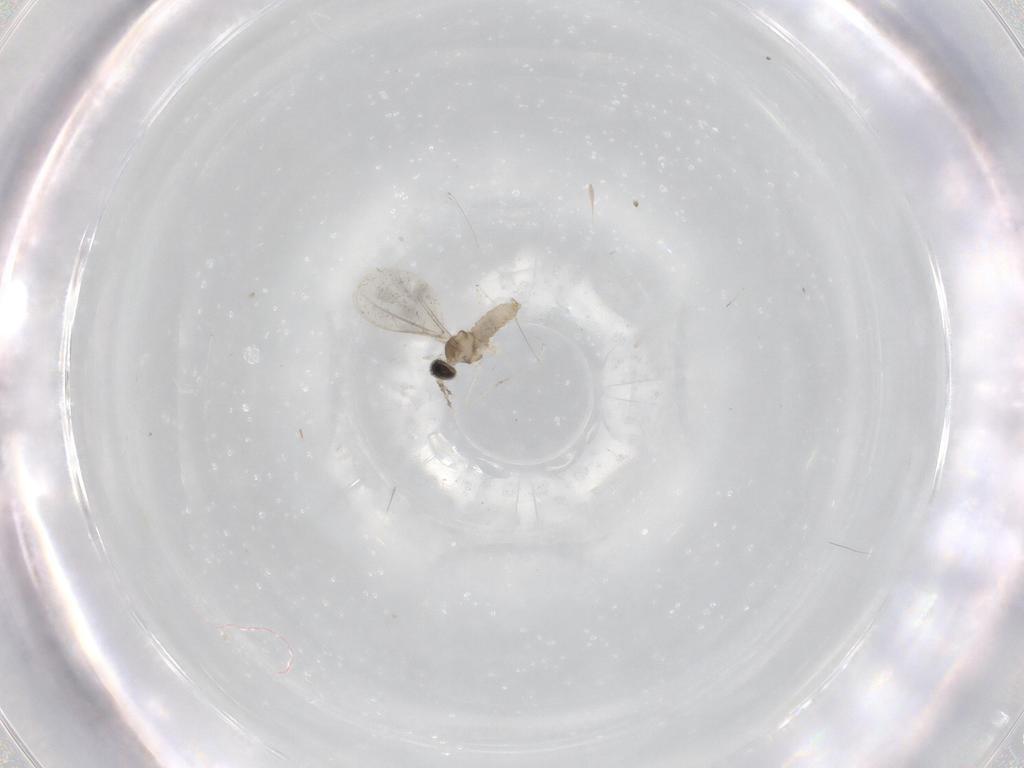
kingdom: Animalia
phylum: Arthropoda
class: Insecta
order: Diptera
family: Cecidomyiidae
